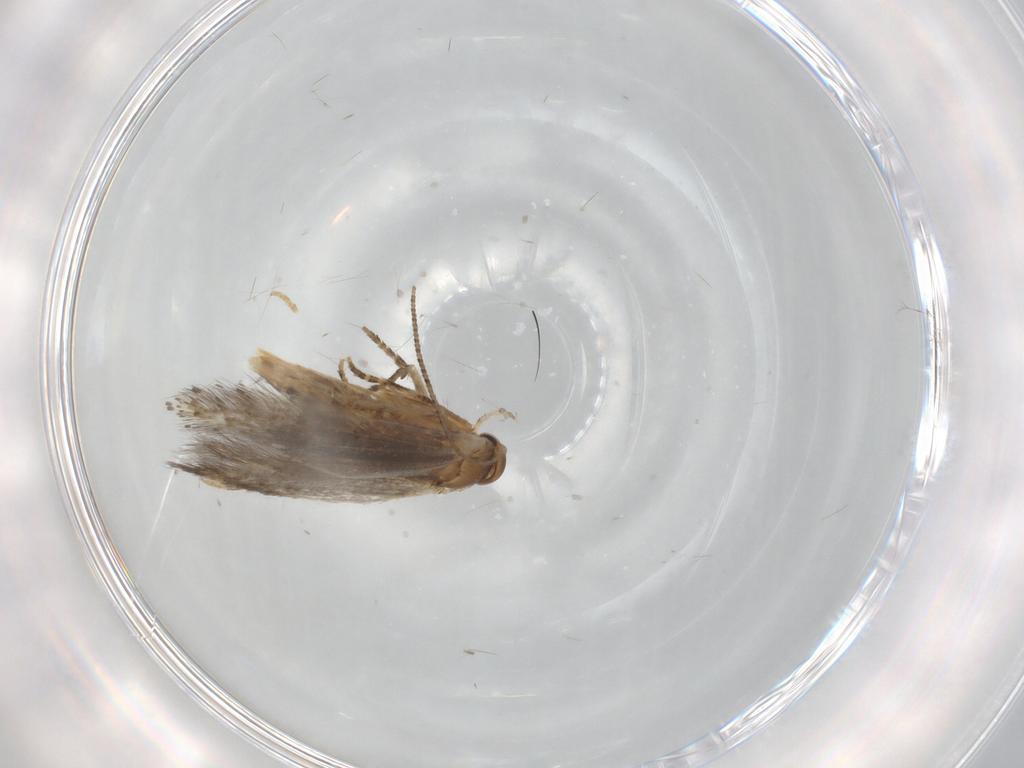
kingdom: Animalia
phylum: Arthropoda
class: Insecta
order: Lepidoptera
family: Elachistidae
